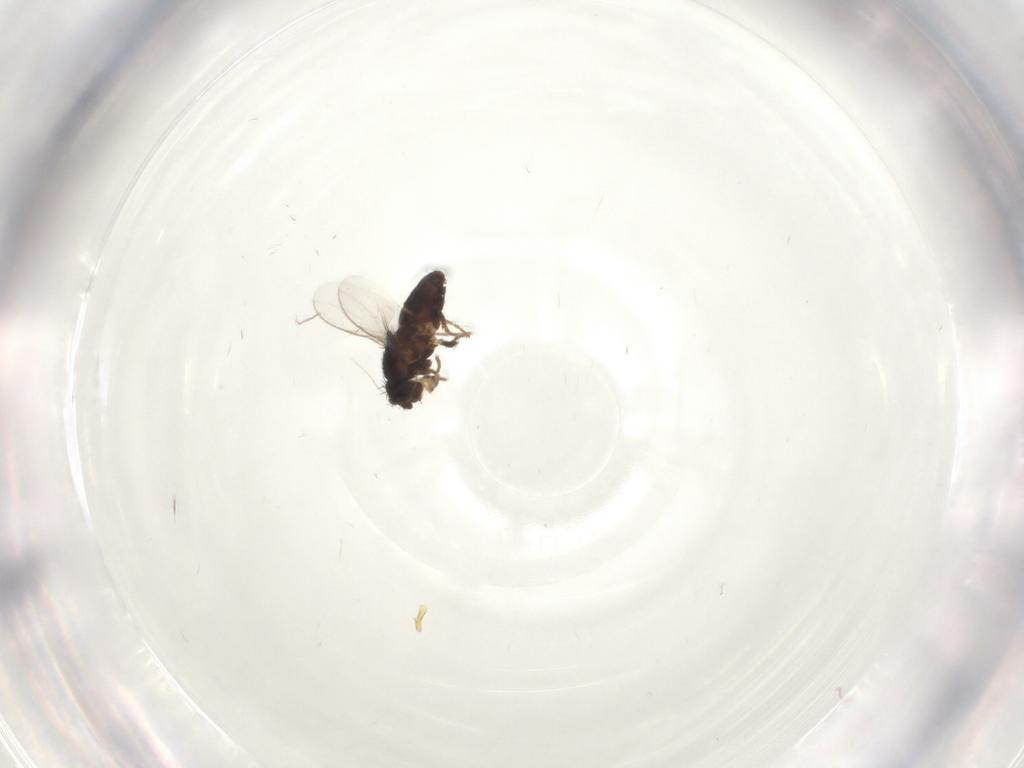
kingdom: Animalia
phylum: Arthropoda
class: Insecta
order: Diptera
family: Sphaeroceridae
